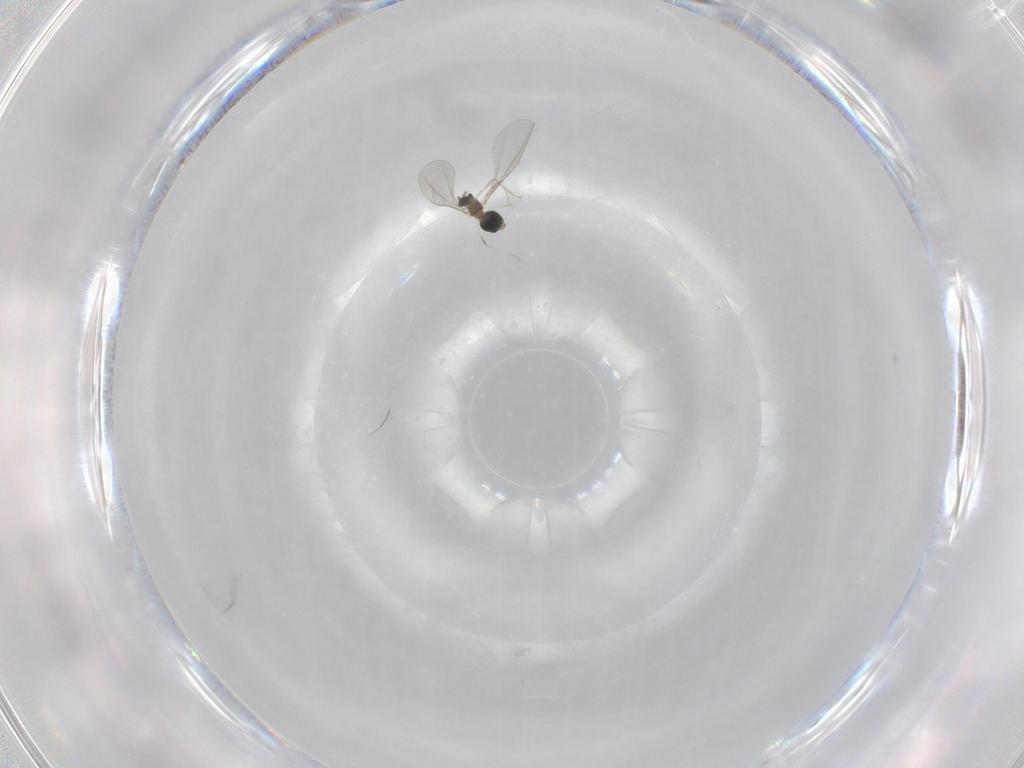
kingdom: Animalia
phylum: Arthropoda
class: Insecta
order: Diptera
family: Cecidomyiidae
